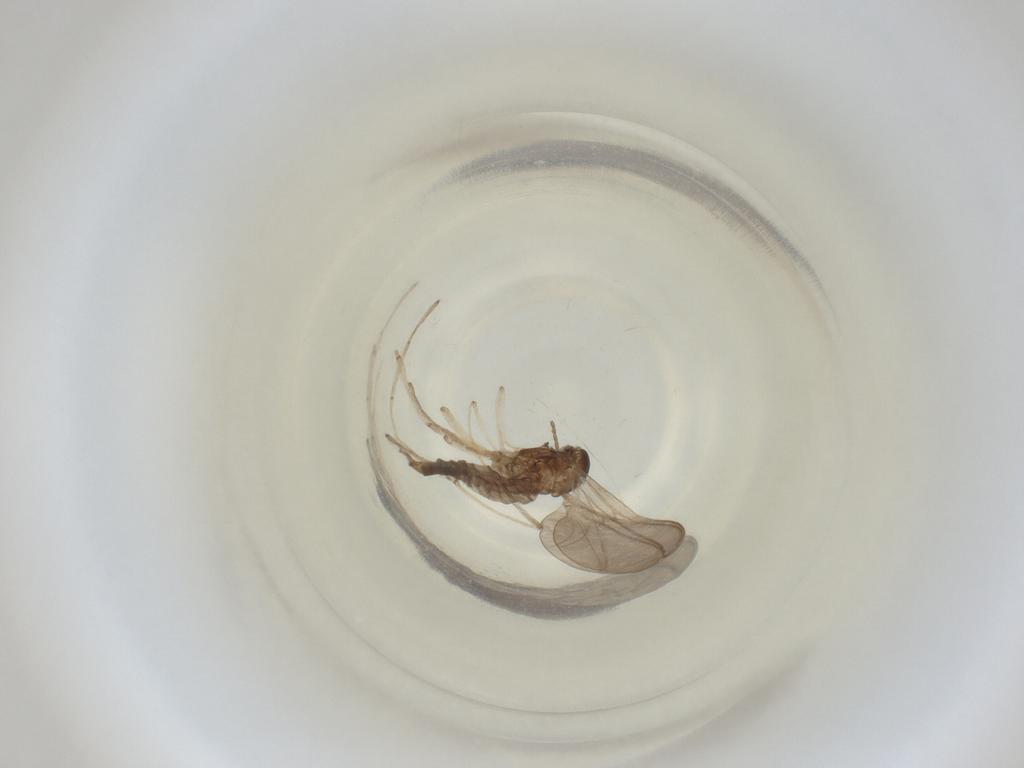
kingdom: Animalia
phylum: Arthropoda
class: Insecta
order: Diptera
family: Cecidomyiidae
